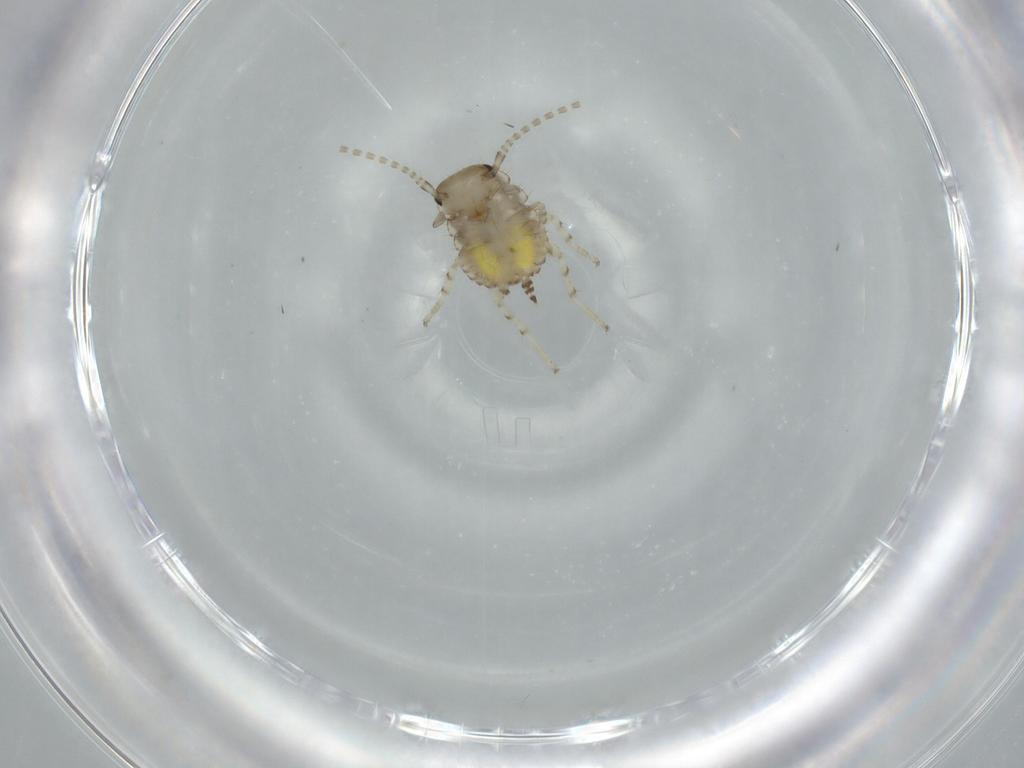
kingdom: Animalia
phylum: Arthropoda
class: Insecta
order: Blattodea
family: Ectobiidae
